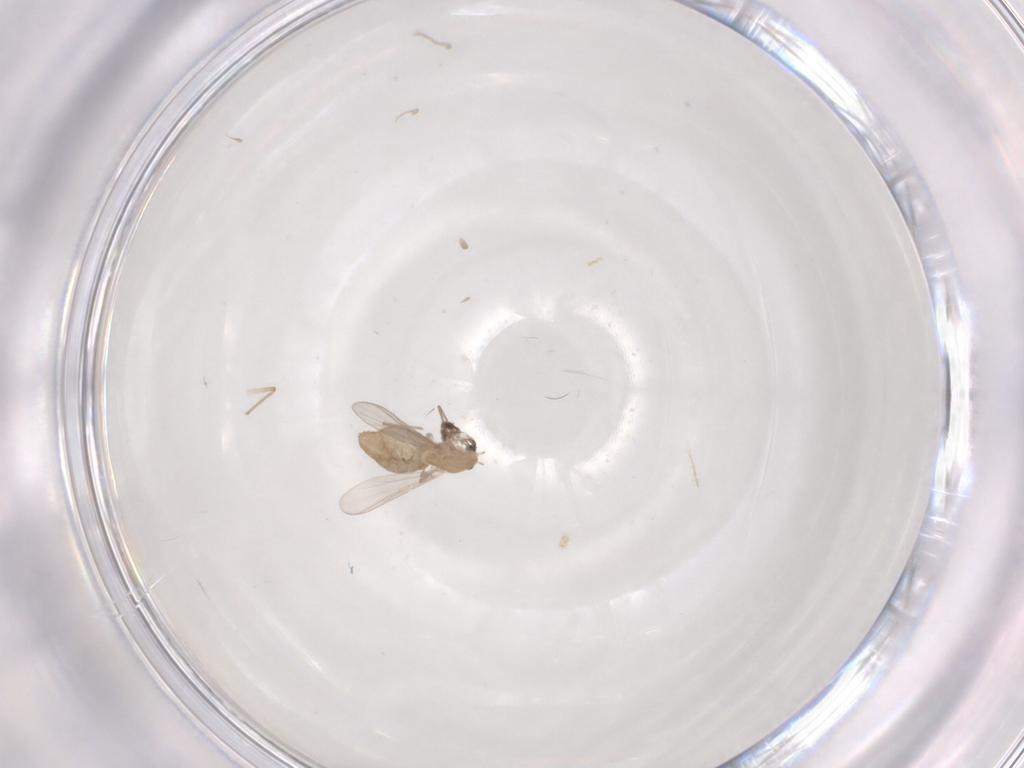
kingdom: Animalia
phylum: Arthropoda
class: Insecta
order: Diptera
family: Chironomidae
